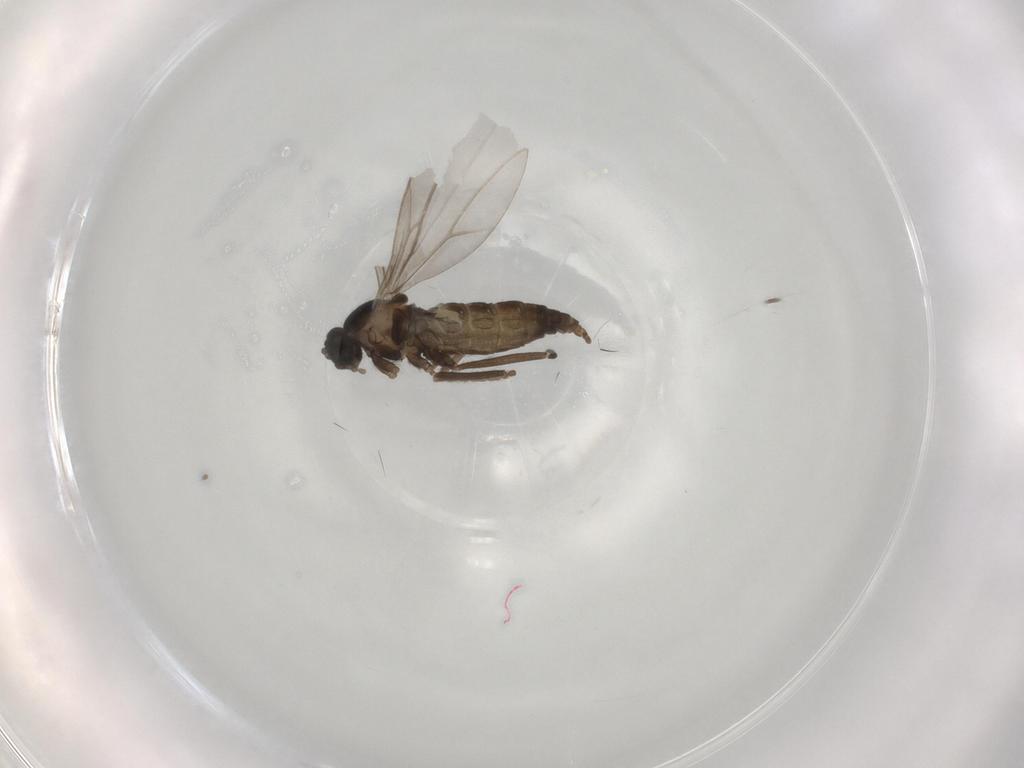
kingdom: Animalia
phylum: Arthropoda
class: Insecta
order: Diptera
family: Cecidomyiidae
